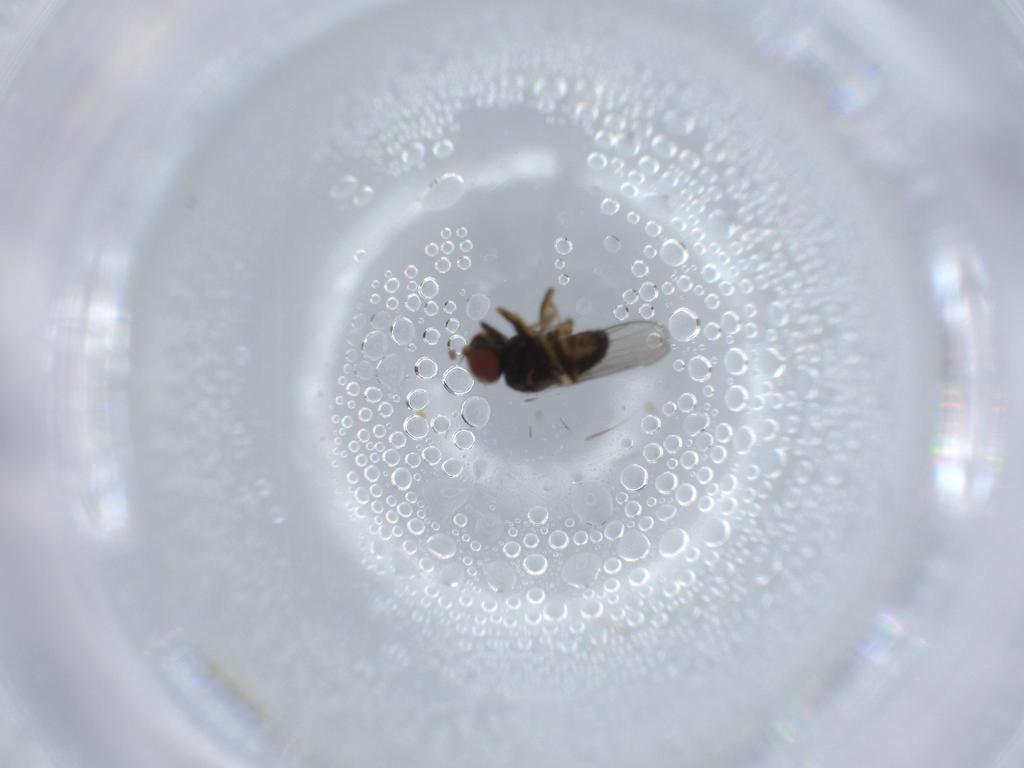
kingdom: Animalia
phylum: Arthropoda
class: Insecta
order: Diptera
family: Chloropidae
